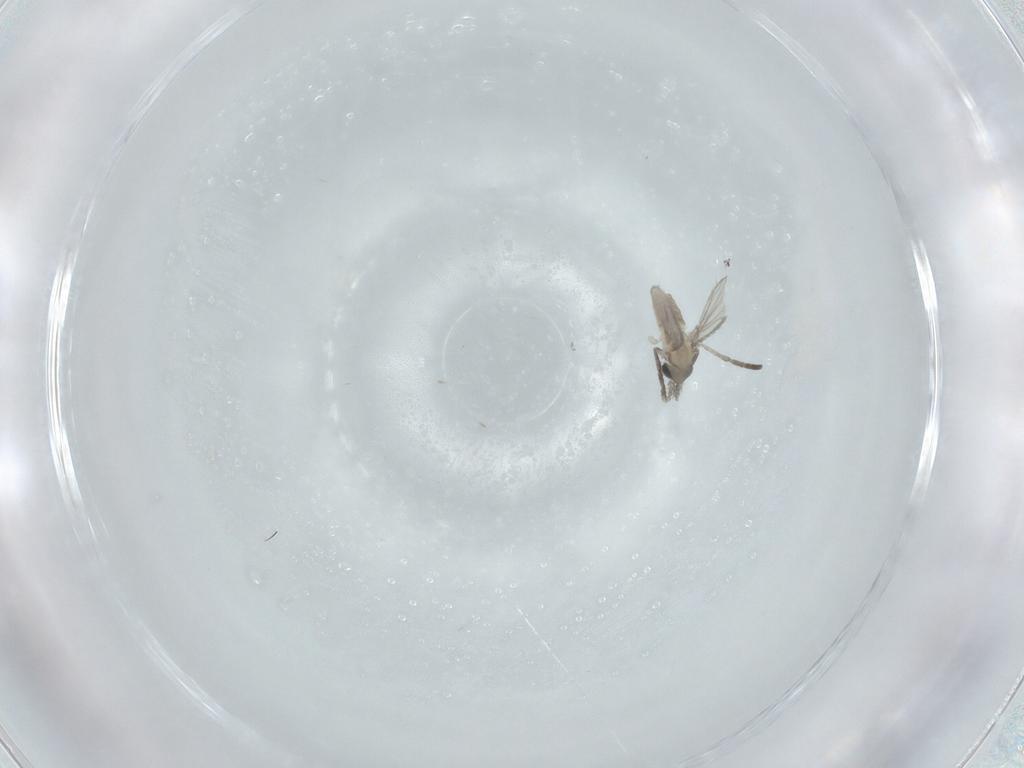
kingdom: Animalia
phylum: Arthropoda
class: Insecta
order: Diptera
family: Psychodidae
